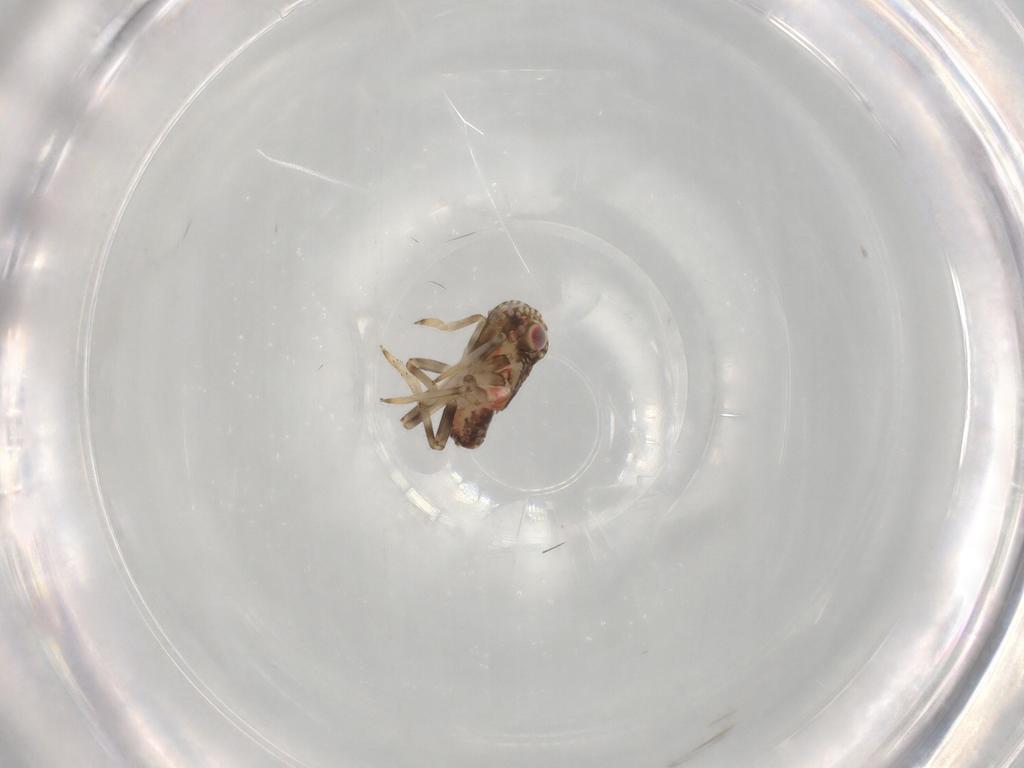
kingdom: Animalia
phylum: Arthropoda
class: Insecta
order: Hemiptera
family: Tropiduchidae
